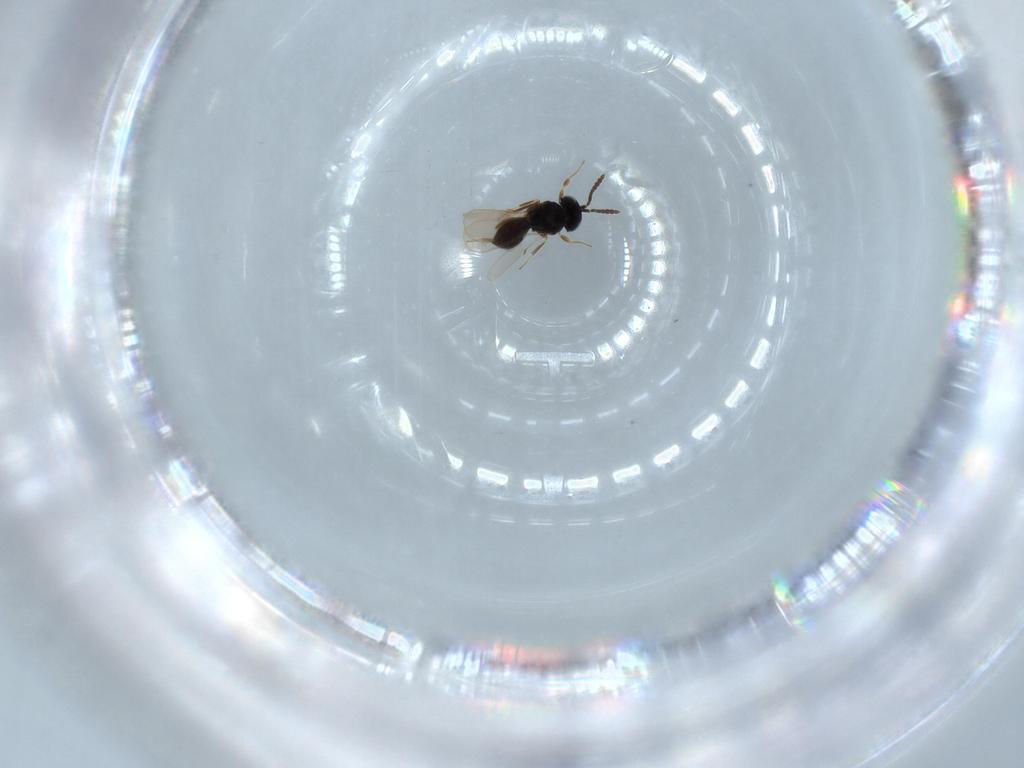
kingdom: Animalia
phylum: Arthropoda
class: Insecta
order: Hymenoptera
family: Scelionidae
